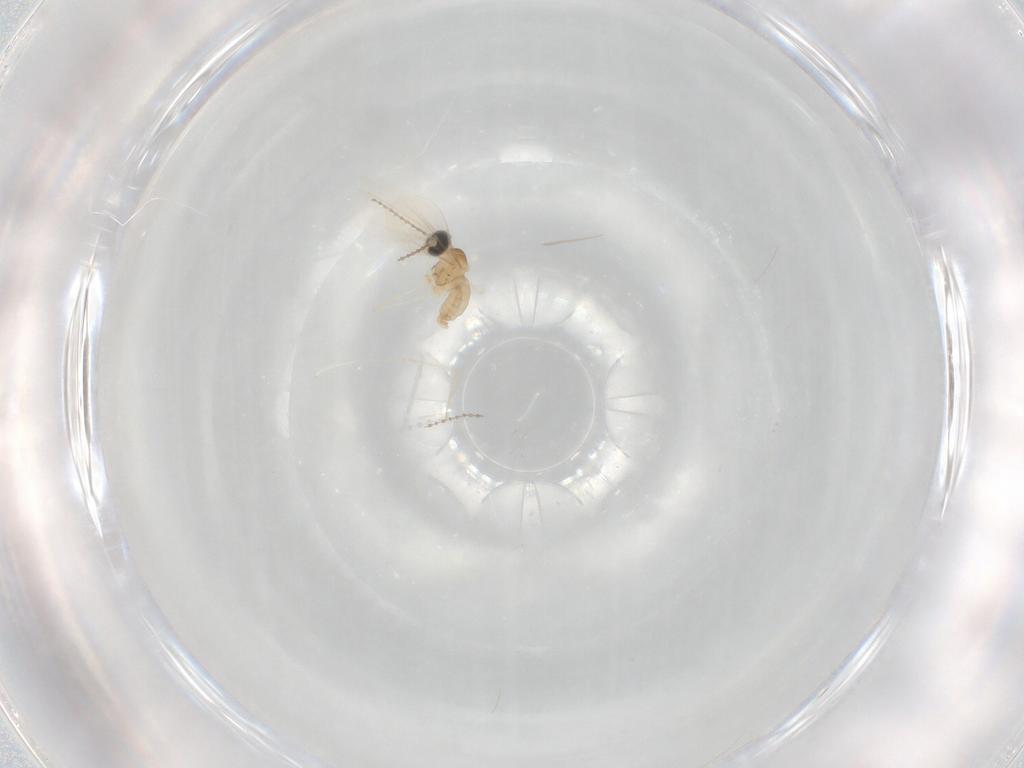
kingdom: Animalia
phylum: Arthropoda
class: Insecta
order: Diptera
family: Cecidomyiidae
